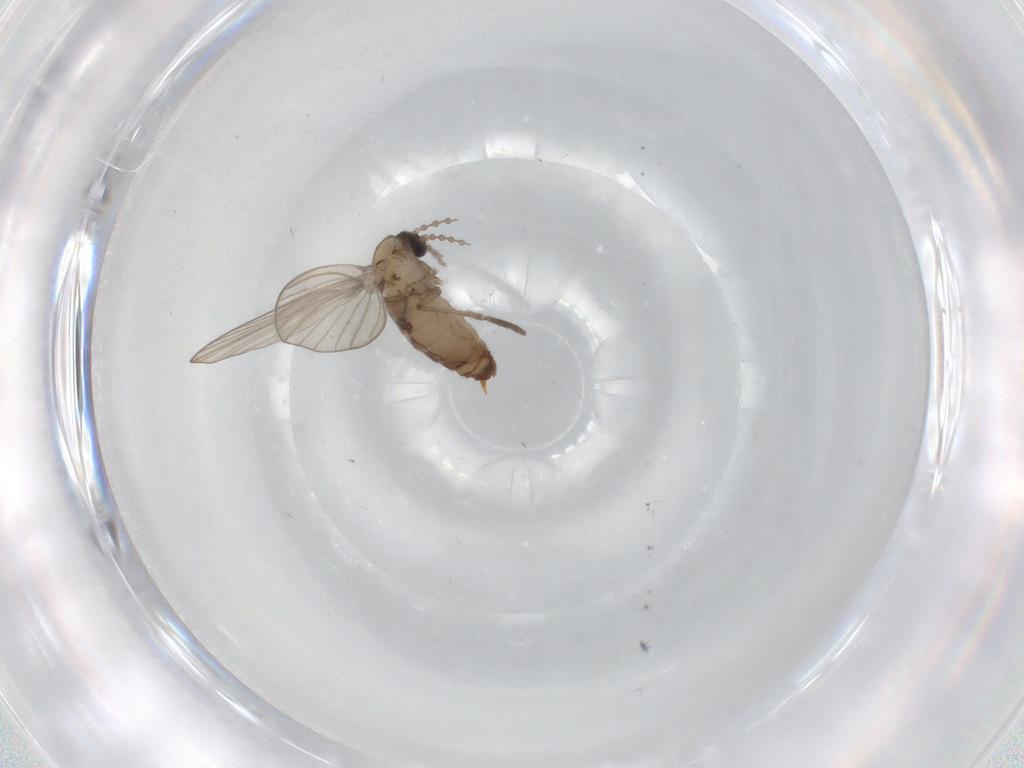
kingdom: Animalia
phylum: Arthropoda
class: Insecta
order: Diptera
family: Psychodidae
